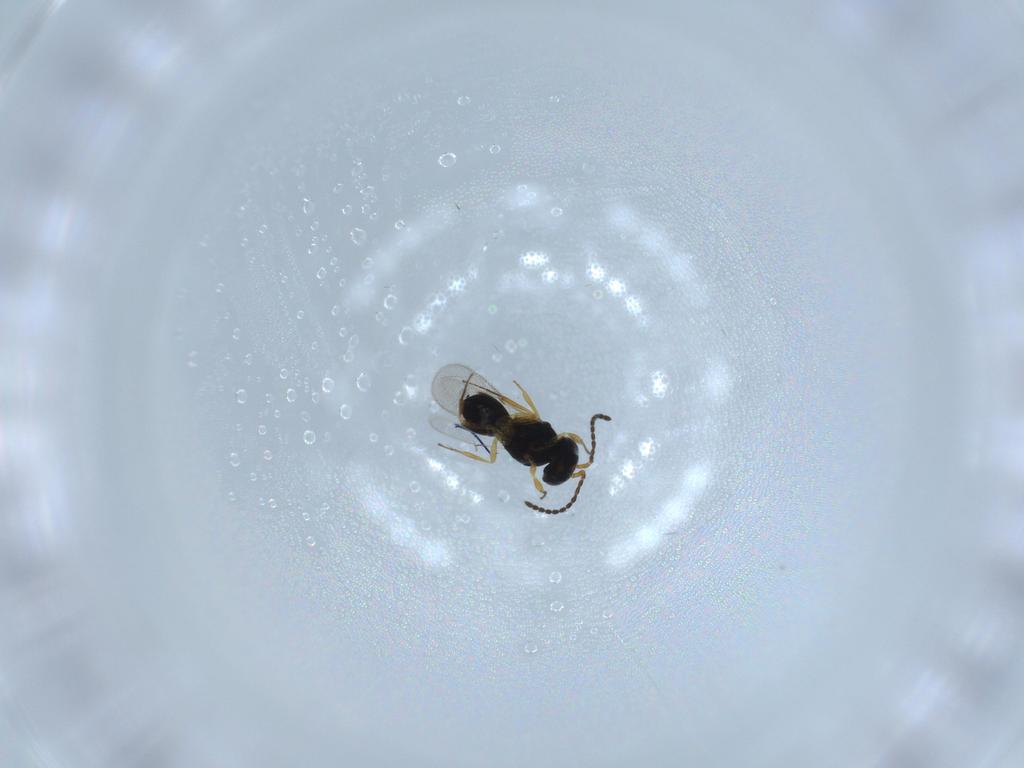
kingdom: Animalia
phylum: Arthropoda
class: Insecta
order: Hymenoptera
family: Scelionidae
